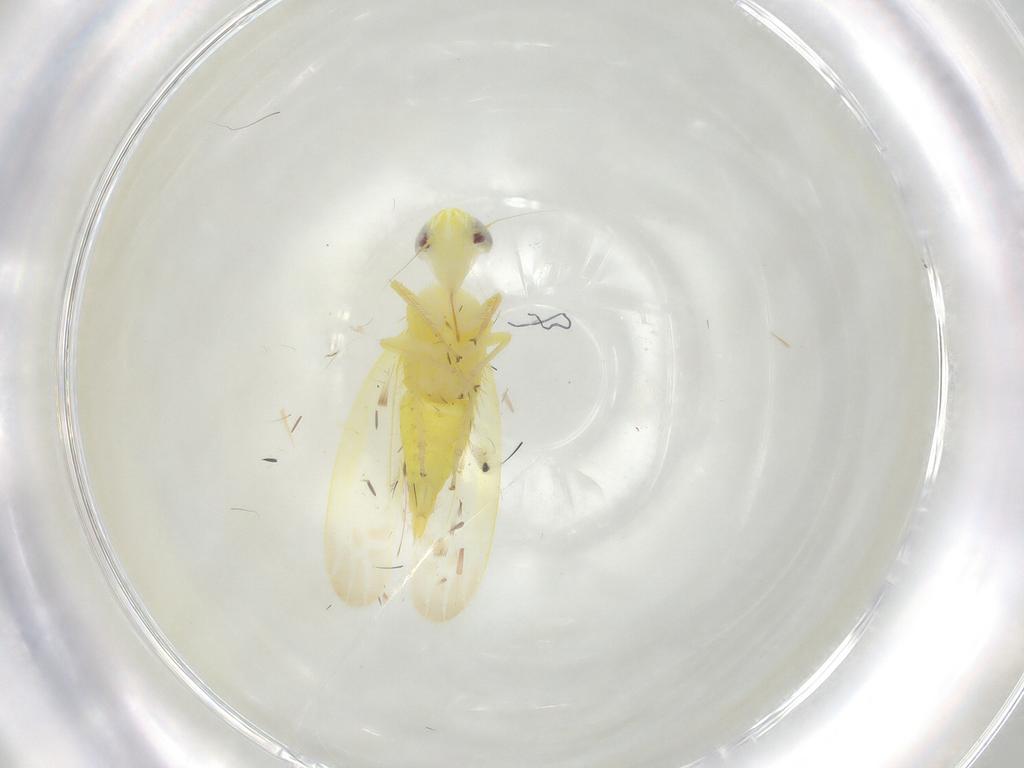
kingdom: Animalia
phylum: Arthropoda
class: Insecta
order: Hemiptera
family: Cicadellidae
